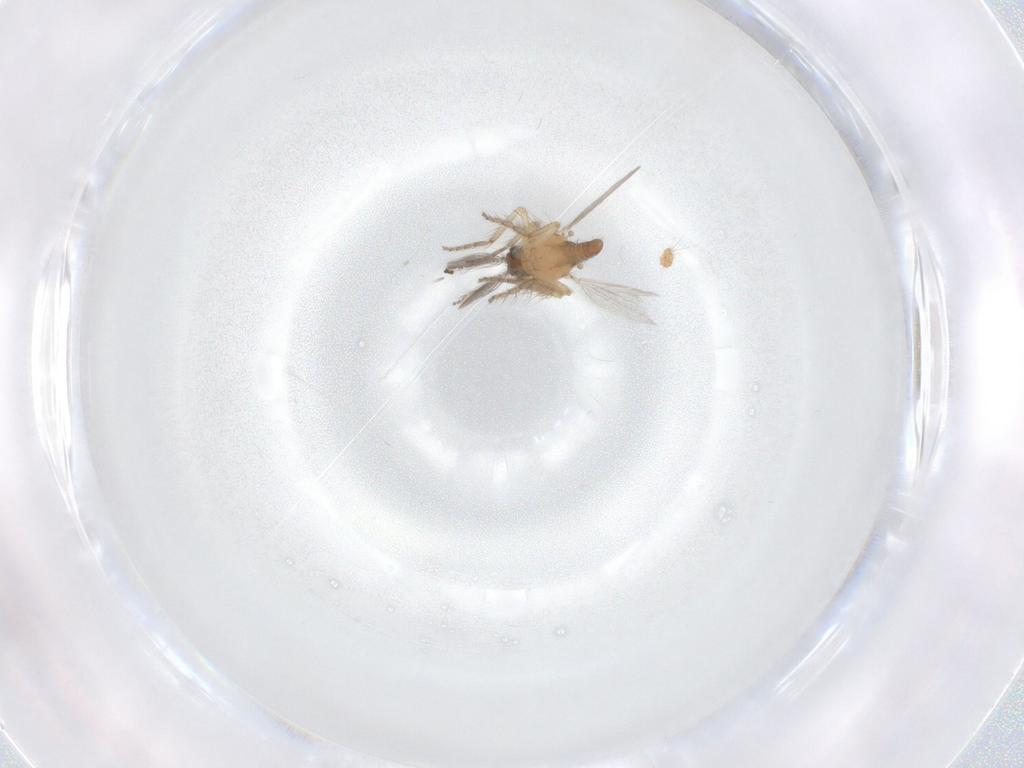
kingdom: Animalia
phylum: Arthropoda
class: Insecta
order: Diptera
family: Ceratopogonidae
